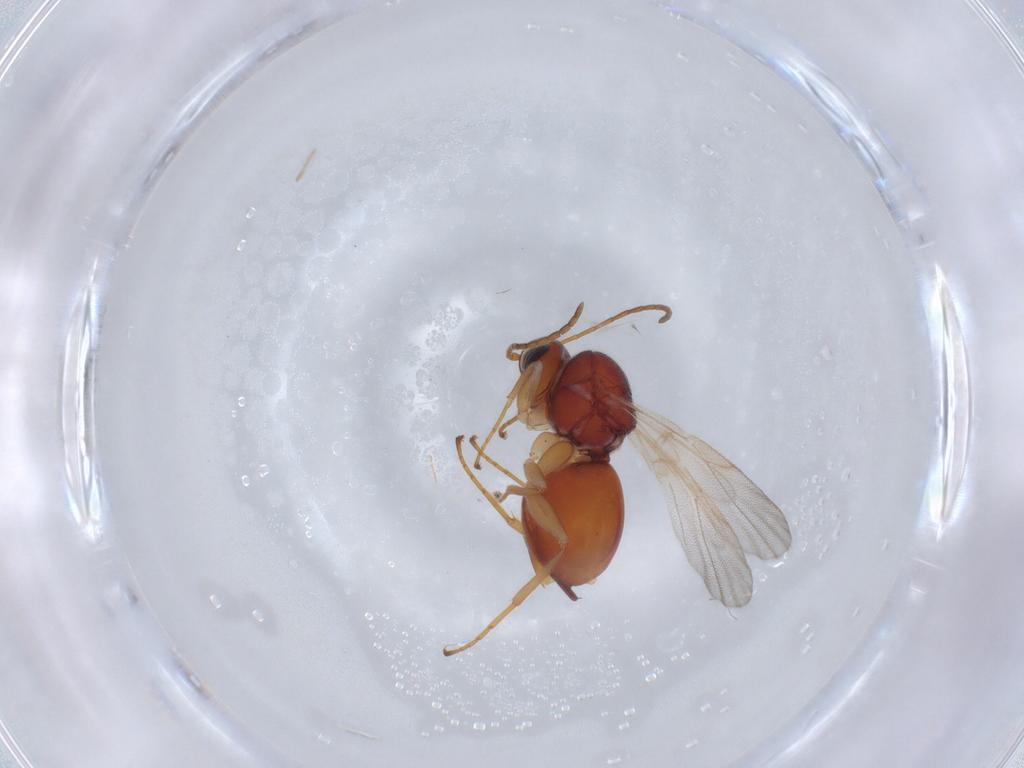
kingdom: Animalia
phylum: Arthropoda
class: Insecta
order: Hymenoptera
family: Cynipidae
